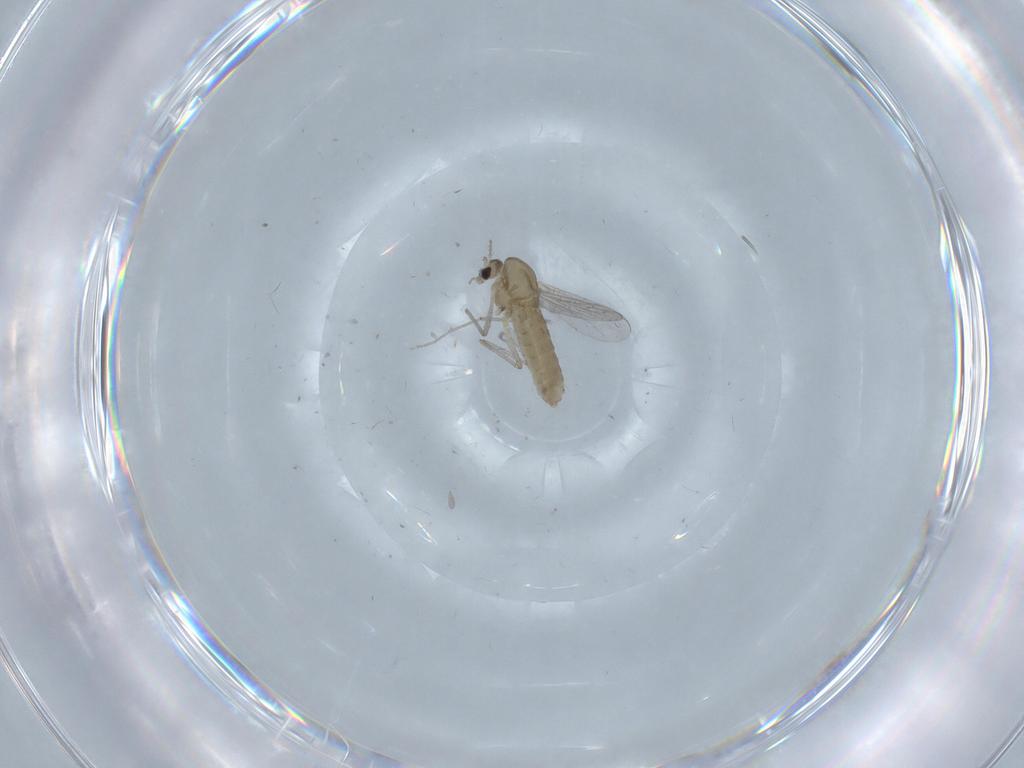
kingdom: Animalia
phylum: Arthropoda
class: Insecta
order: Diptera
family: Chironomidae
